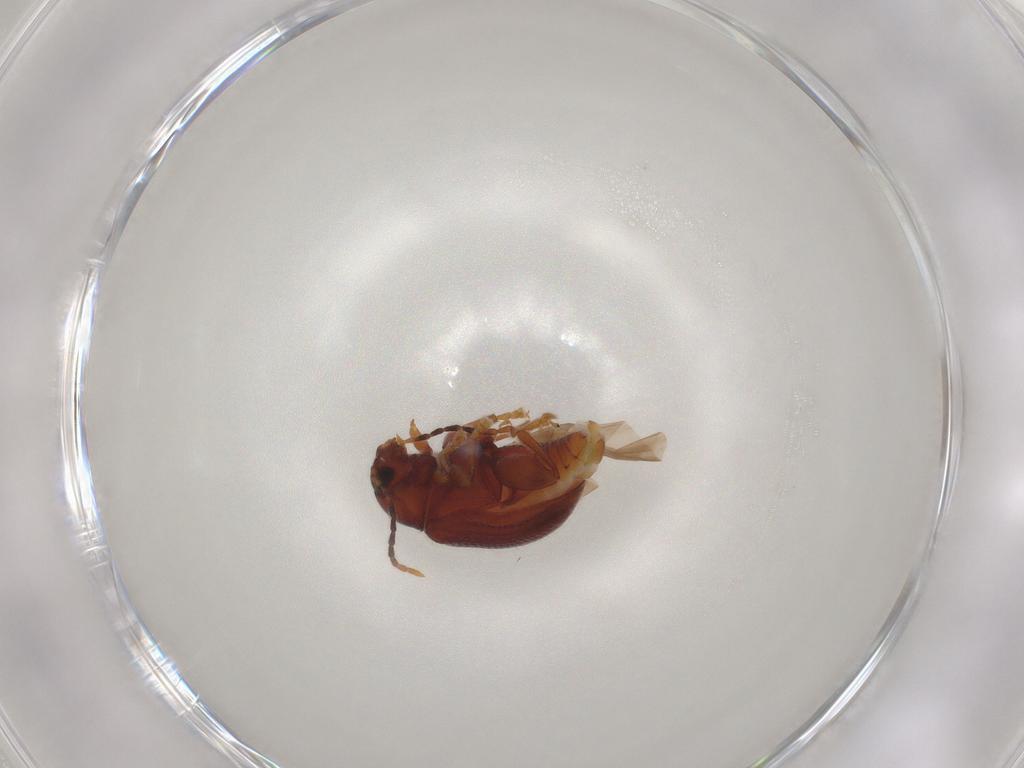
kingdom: Animalia
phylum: Arthropoda
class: Insecta
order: Coleoptera
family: Chrysomelidae
